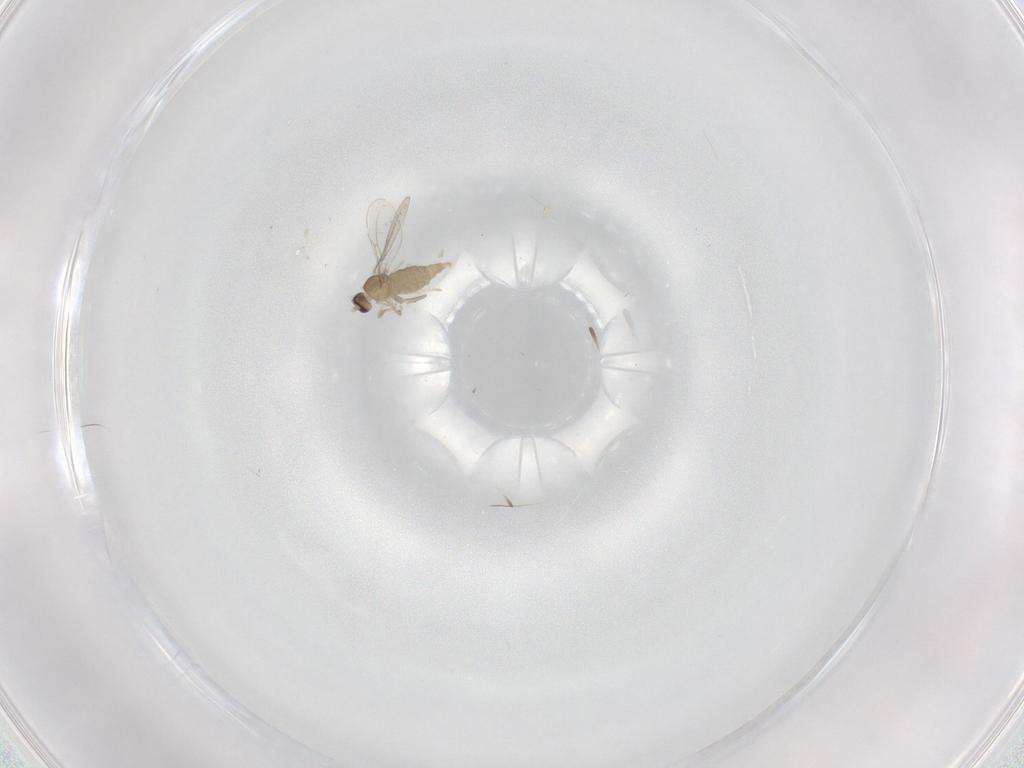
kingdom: Animalia
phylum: Arthropoda
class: Insecta
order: Diptera
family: Cecidomyiidae
